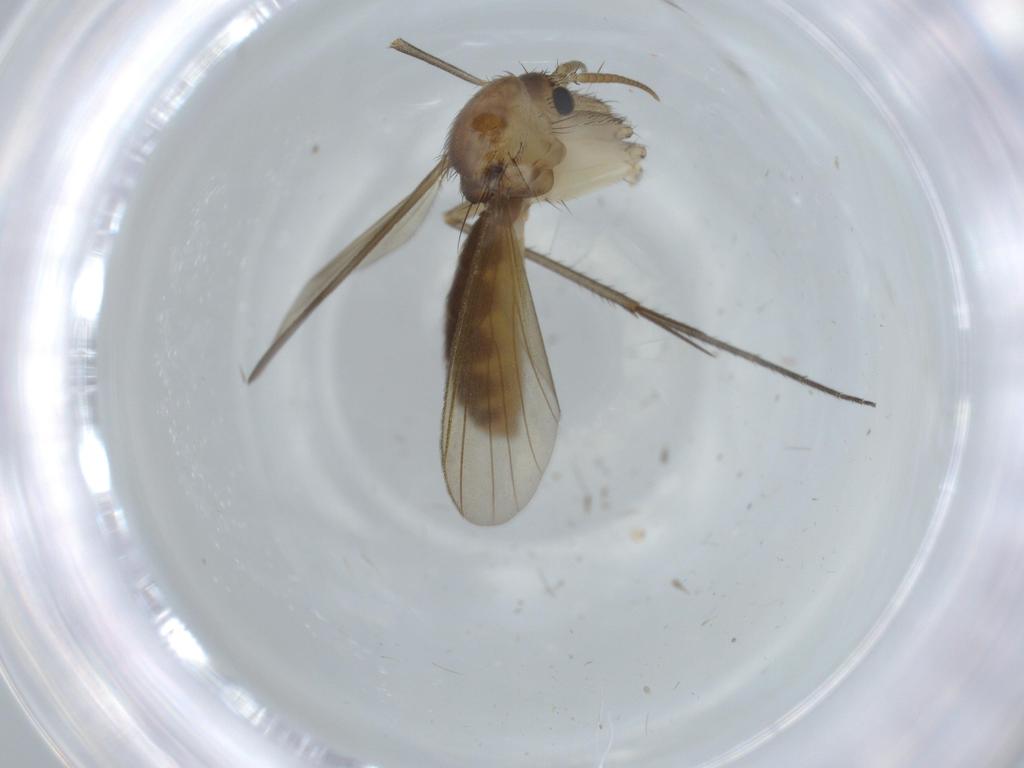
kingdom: Animalia
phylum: Arthropoda
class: Insecta
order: Diptera
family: Mycetophilidae
